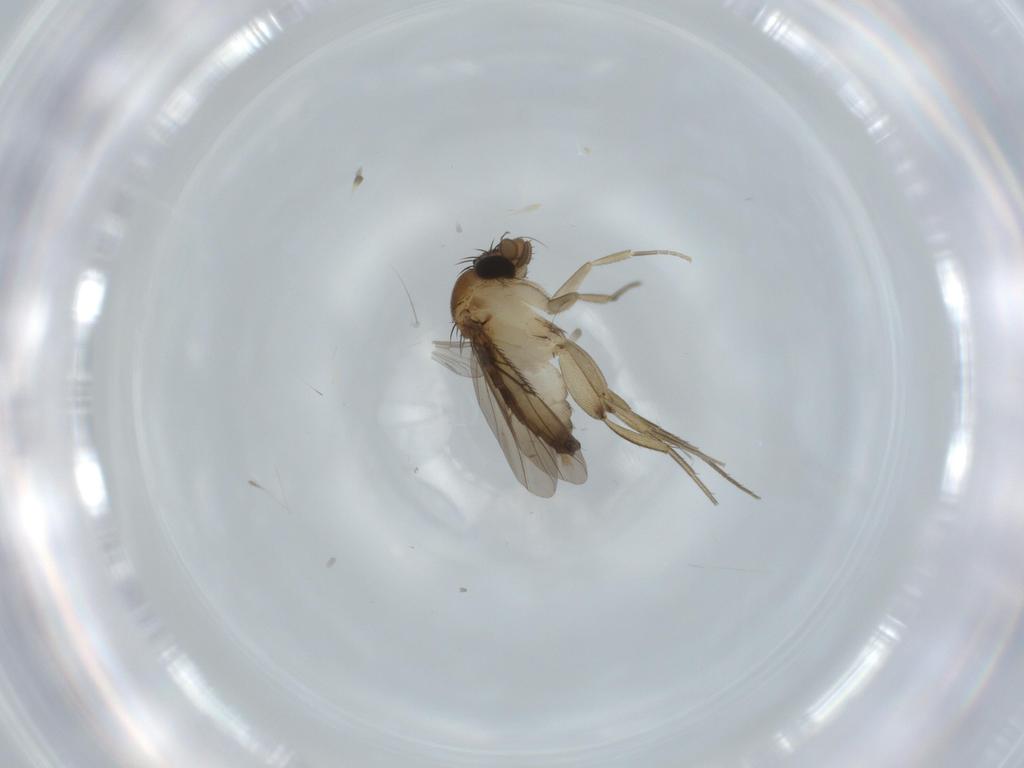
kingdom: Animalia
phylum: Arthropoda
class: Insecta
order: Diptera
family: Phoridae
